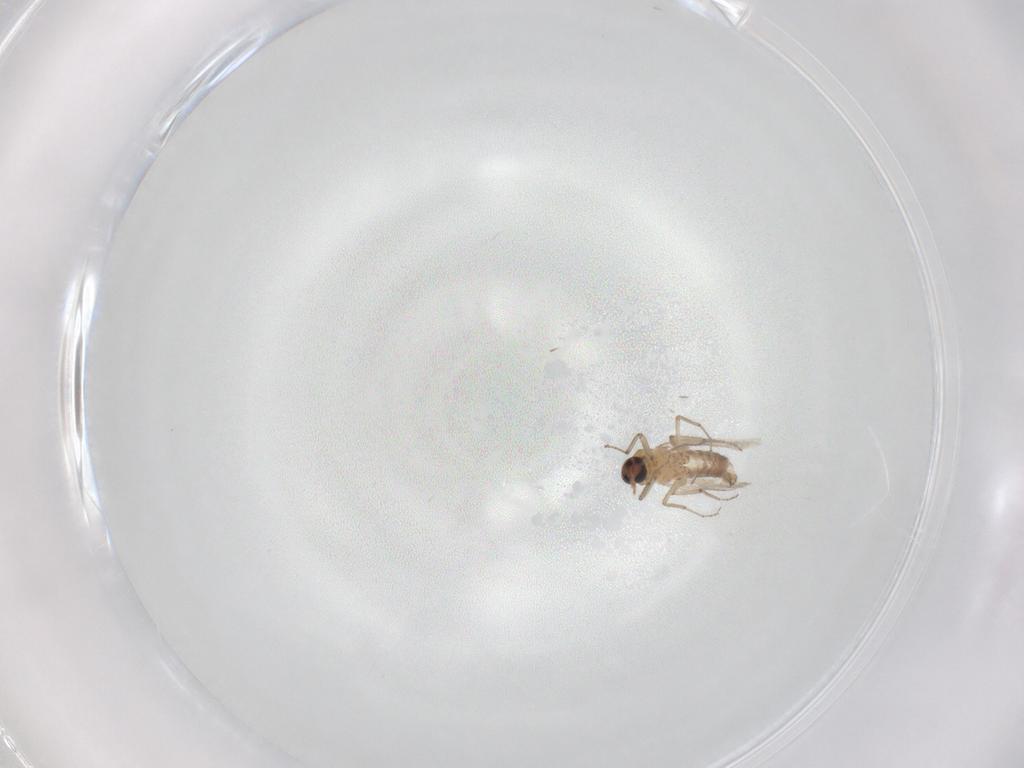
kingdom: Animalia
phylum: Arthropoda
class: Insecta
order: Diptera
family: Ceratopogonidae
